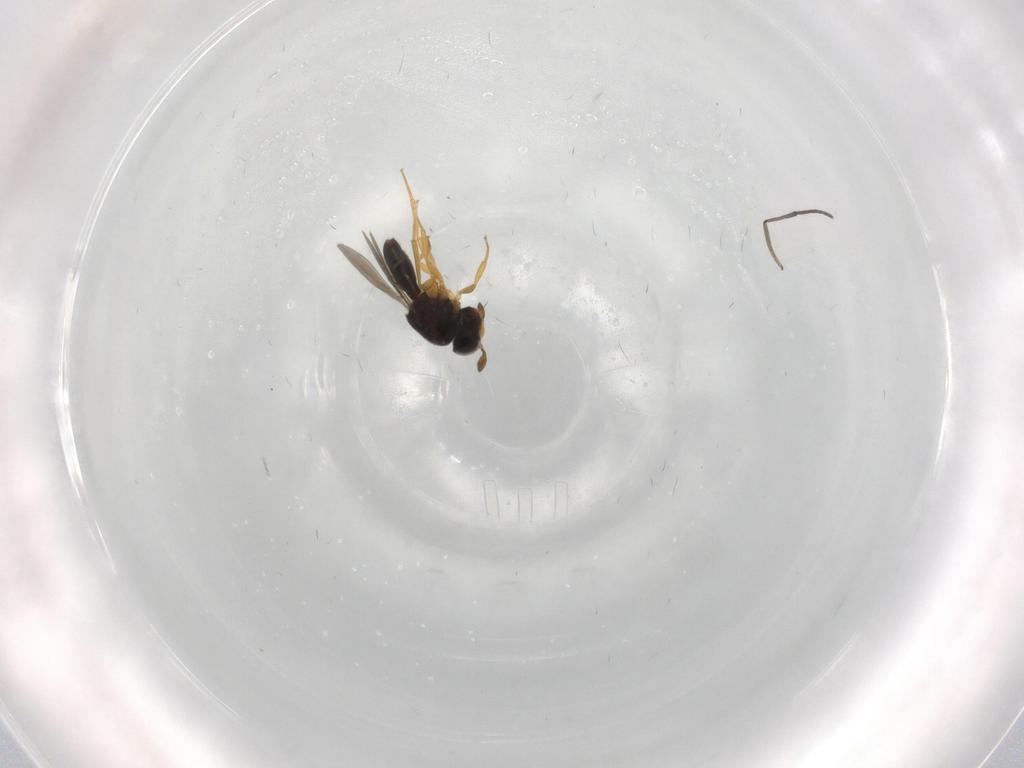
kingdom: Animalia
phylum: Arthropoda
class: Insecta
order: Hymenoptera
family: Scelionidae
